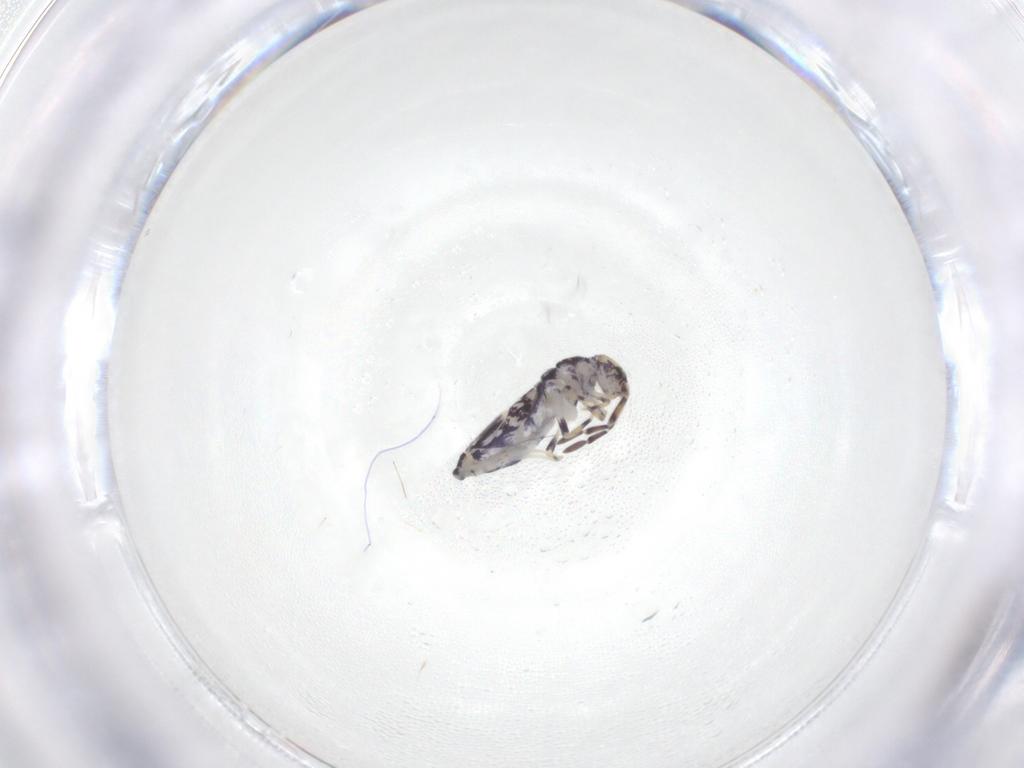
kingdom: Animalia
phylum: Arthropoda
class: Collembola
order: Entomobryomorpha
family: Entomobryidae
